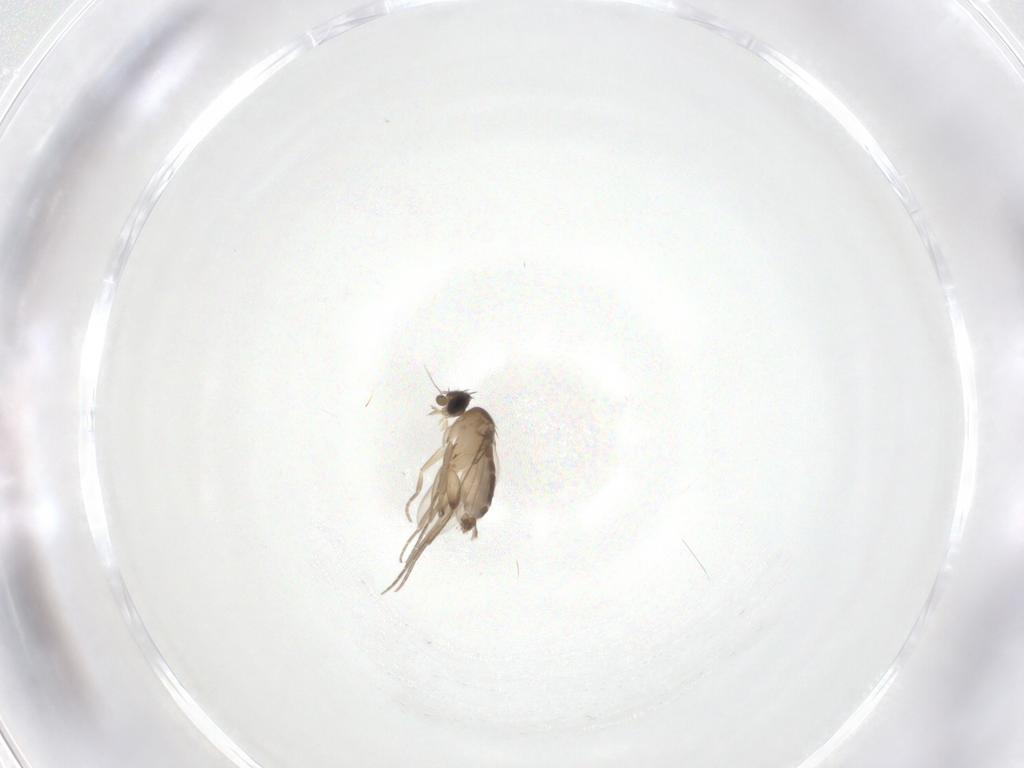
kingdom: Animalia
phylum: Arthropoda
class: Insecta
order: Diptera
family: Phoridae
